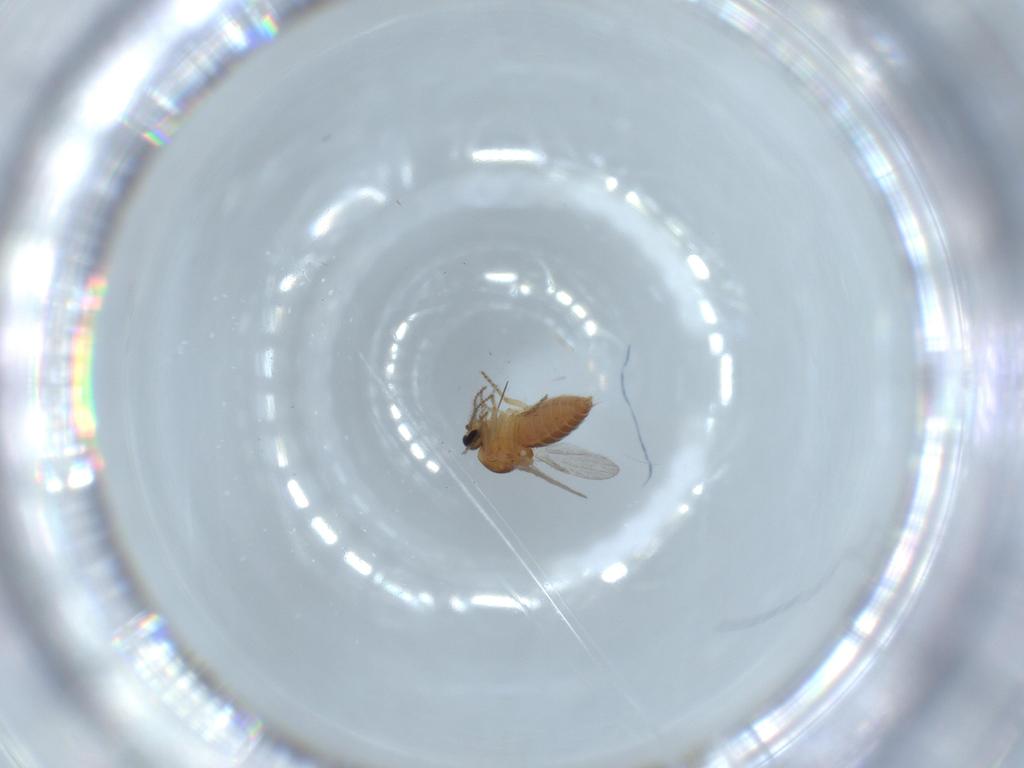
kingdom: Animalia
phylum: Arthropoda
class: Insecta
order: Diptera
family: Ceratopogonidae
